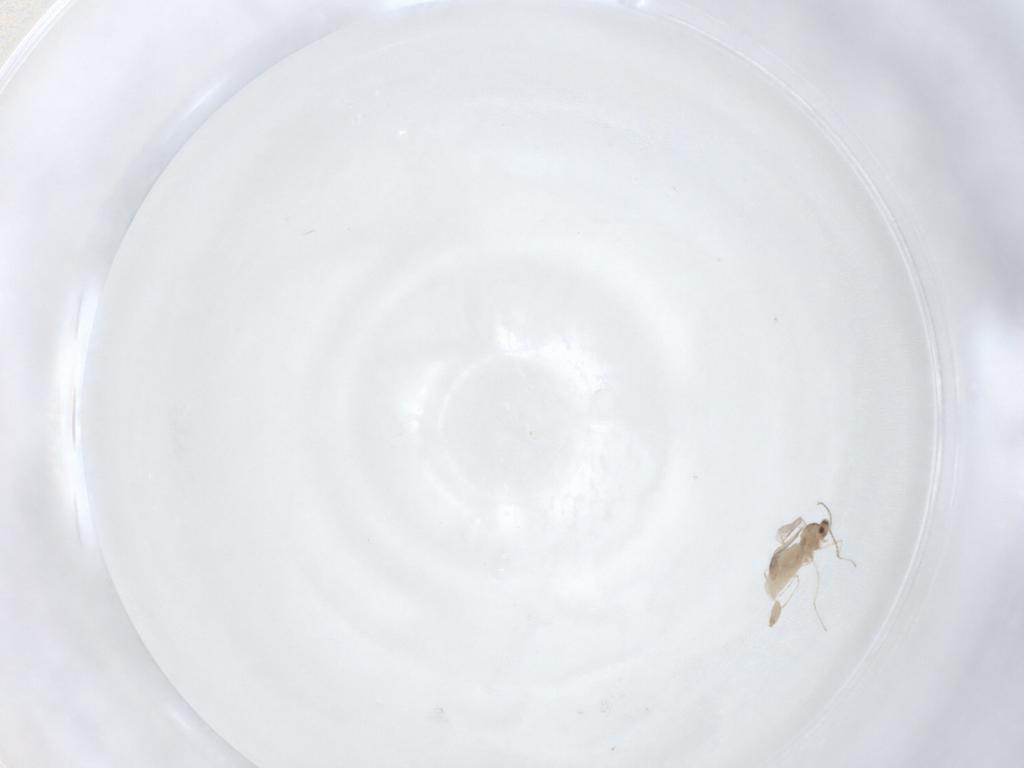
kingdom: Animalia
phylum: Arthropoda
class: Insecta
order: Diptera
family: Cecidomyiidae
